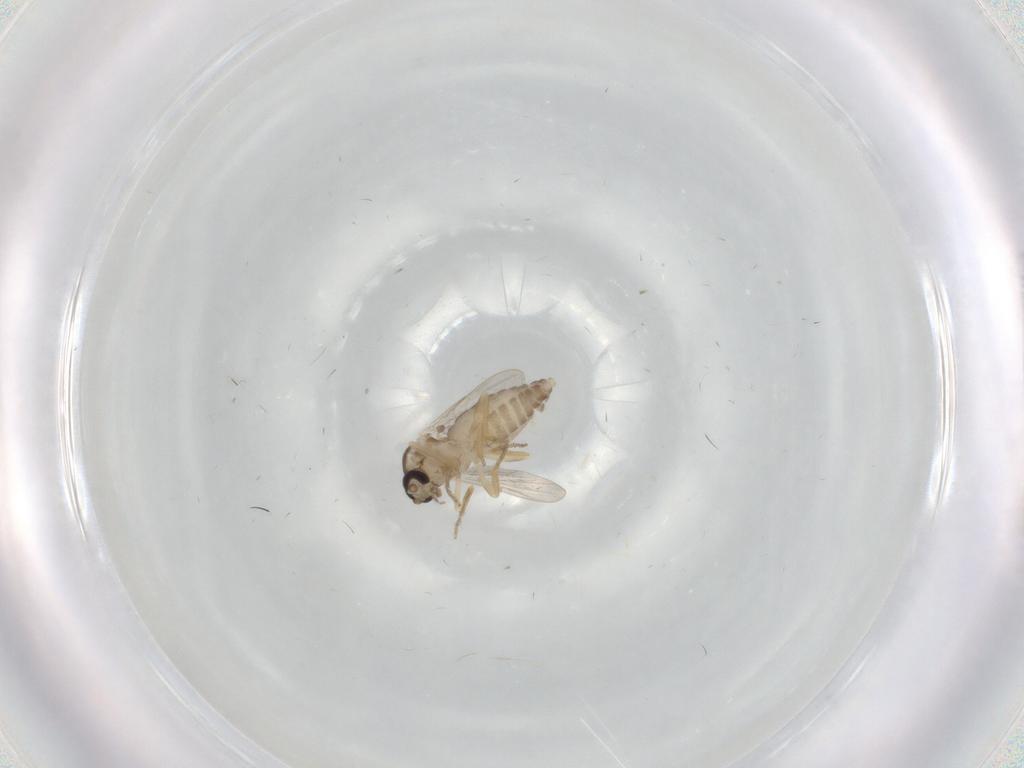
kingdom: Animalia
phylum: Arthropoda
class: Insecta
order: Diptera
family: Ceratopogonidae
